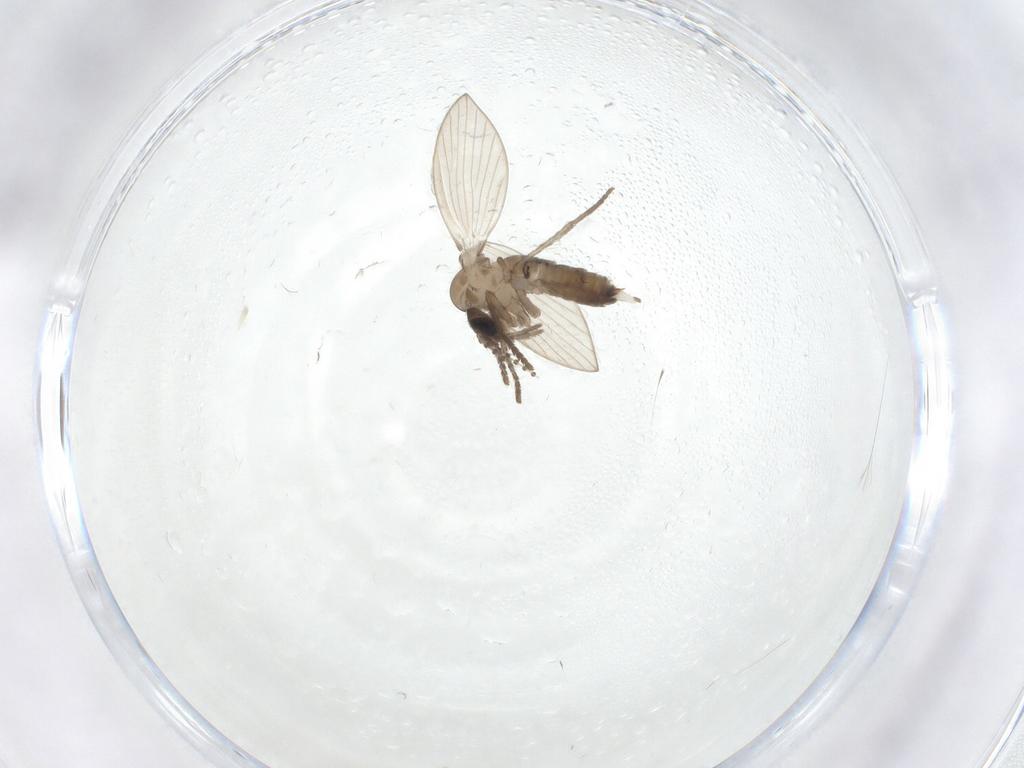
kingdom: Animalia
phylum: Arthropoda
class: Insecta
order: Diptera
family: Psychodidae
